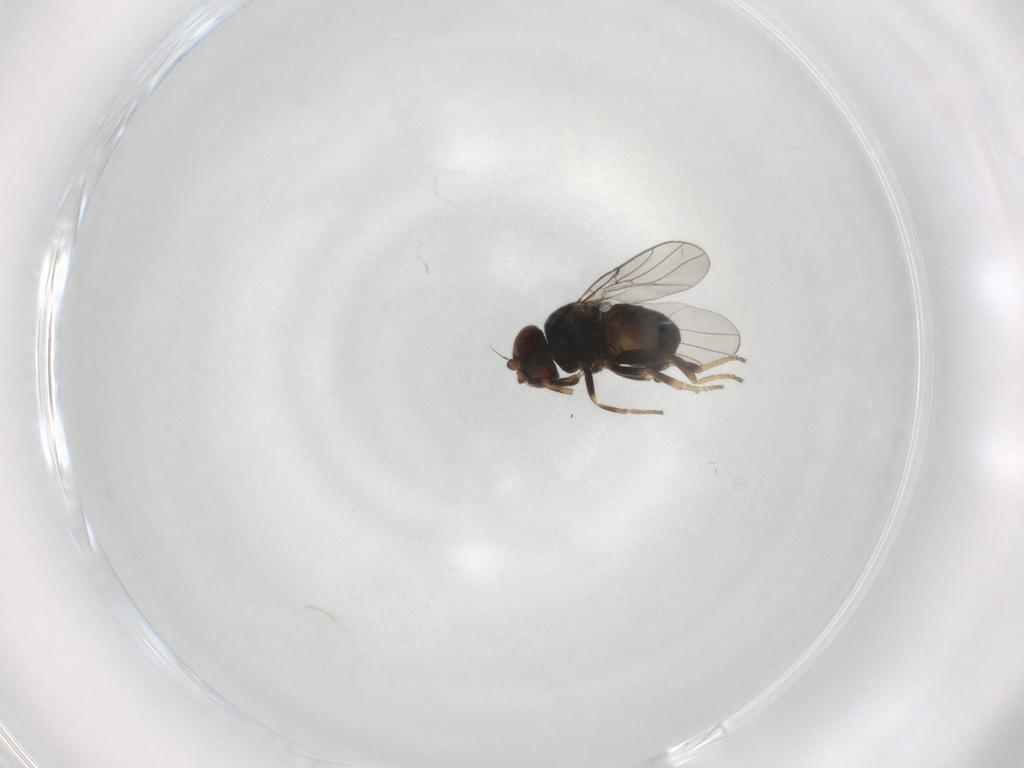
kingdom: Animalia
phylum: Arthropoda
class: Insecta
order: Diptera
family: Chloropidae
